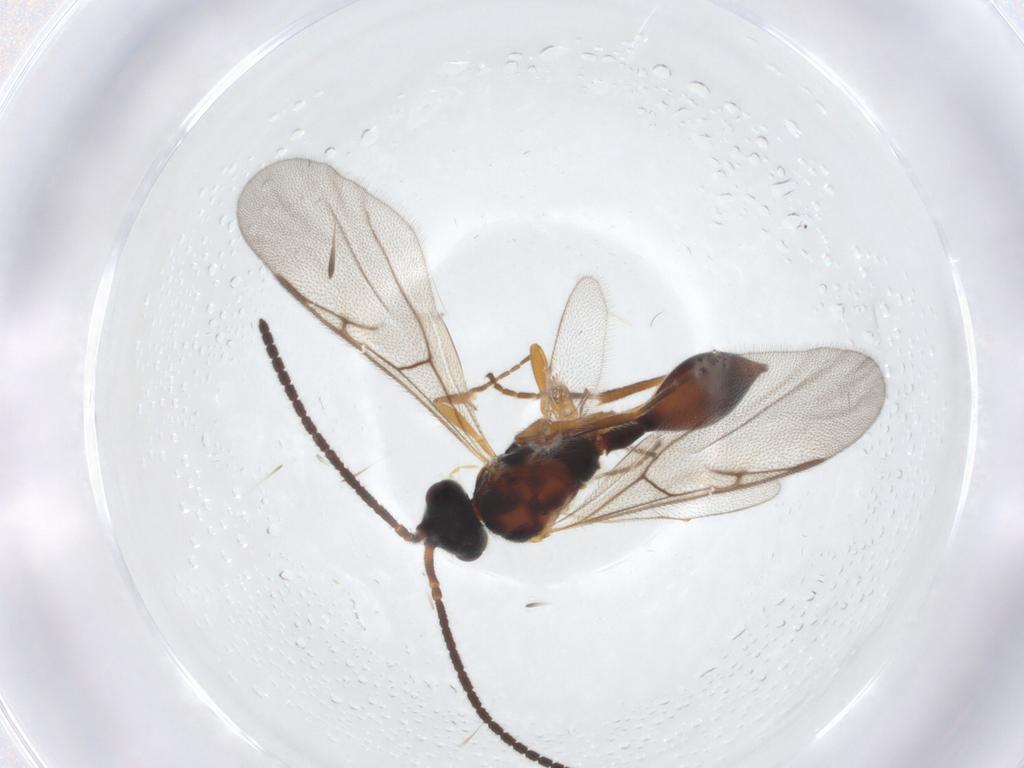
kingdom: Animalia
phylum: Arthropoda
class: Insecta
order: Hymenoptera
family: Diapriidae
